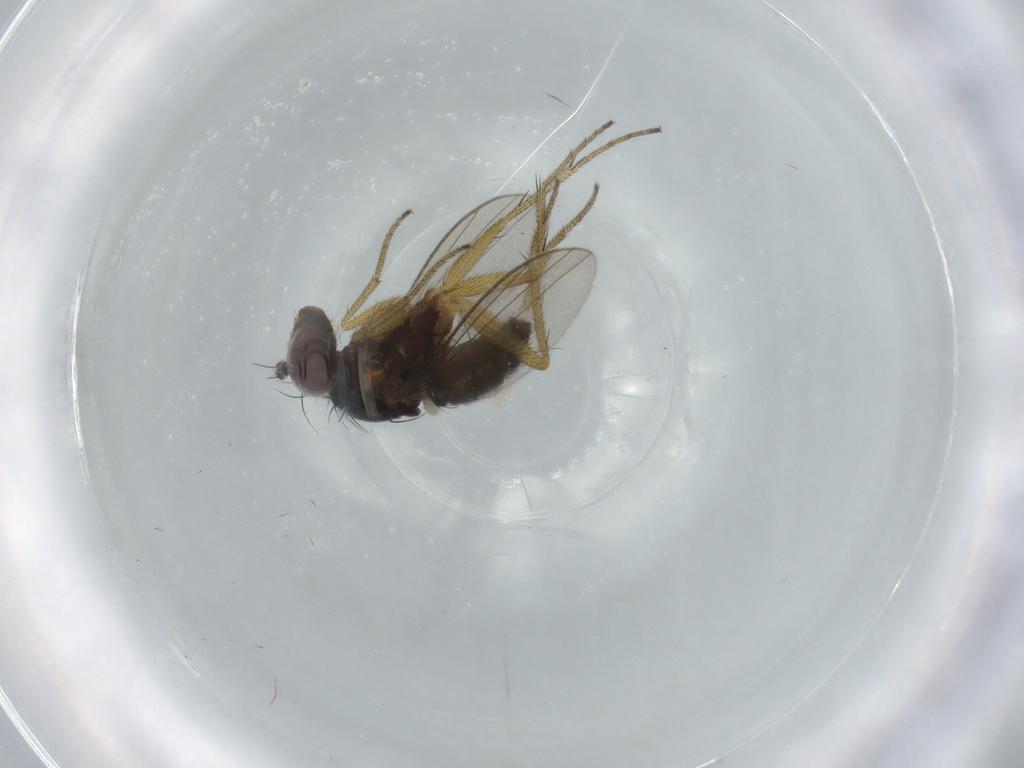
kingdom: Animalia
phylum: Arthropoda
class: Insecta
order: Diptera
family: Dolichopodidae
